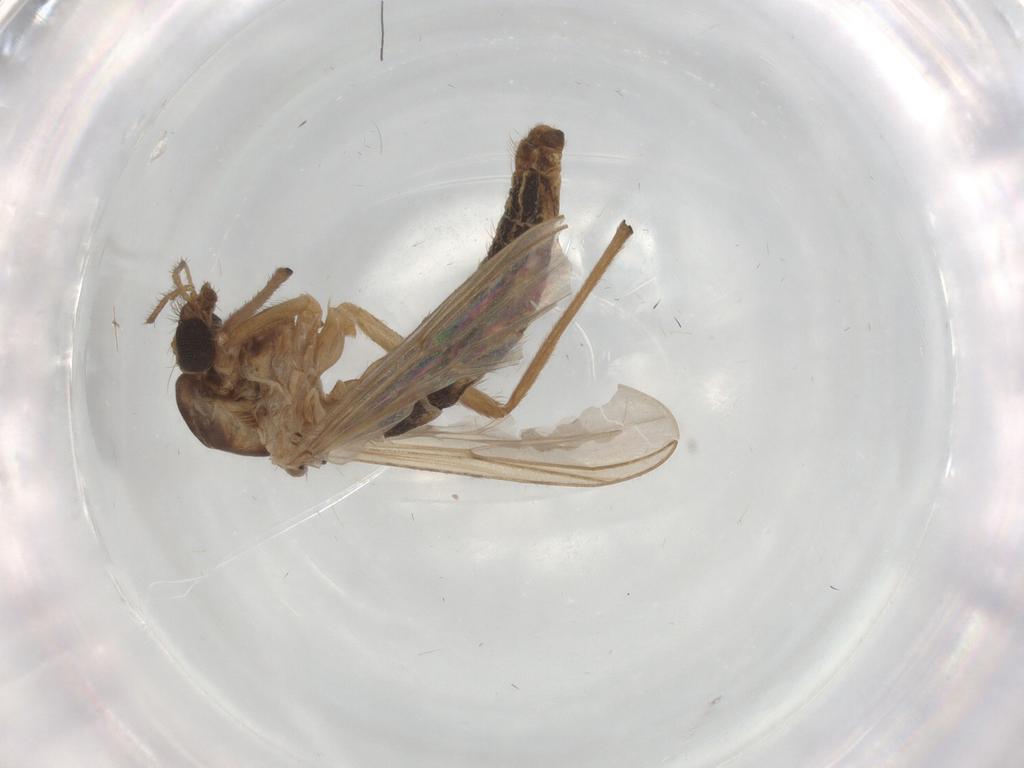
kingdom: Animalia
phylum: Arthropoda
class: Insecta
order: Diptera
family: Chironomidae
